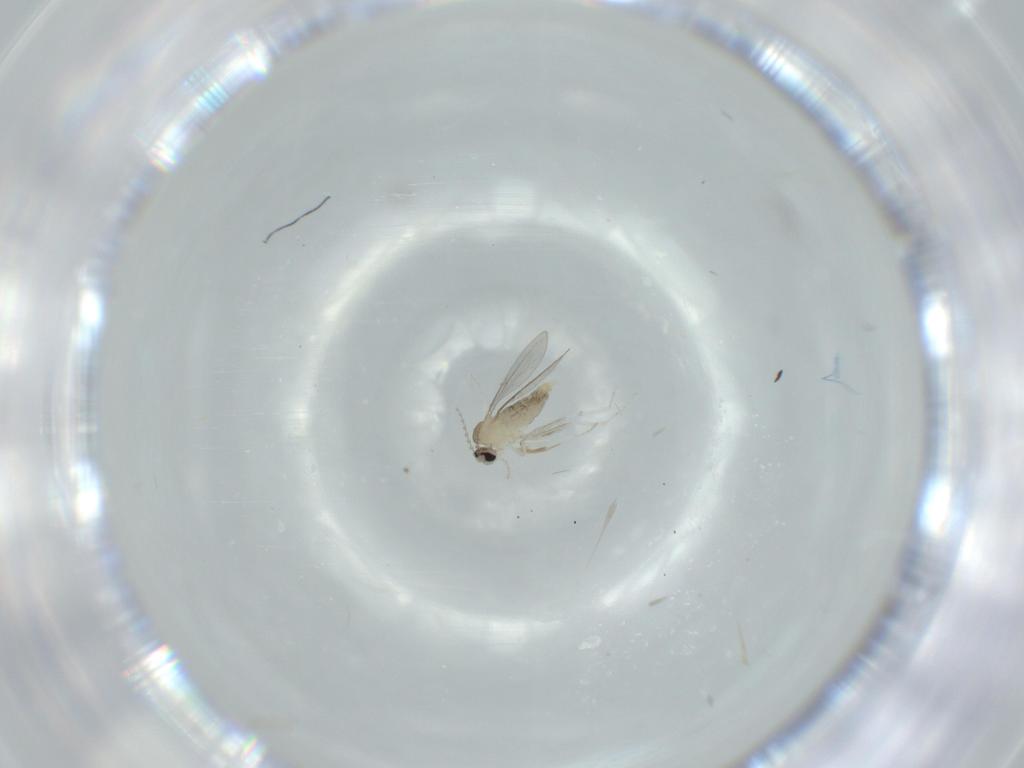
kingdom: Animalia
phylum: Arthropoda
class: Insecta
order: Diptera
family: Cecidomyiidae
